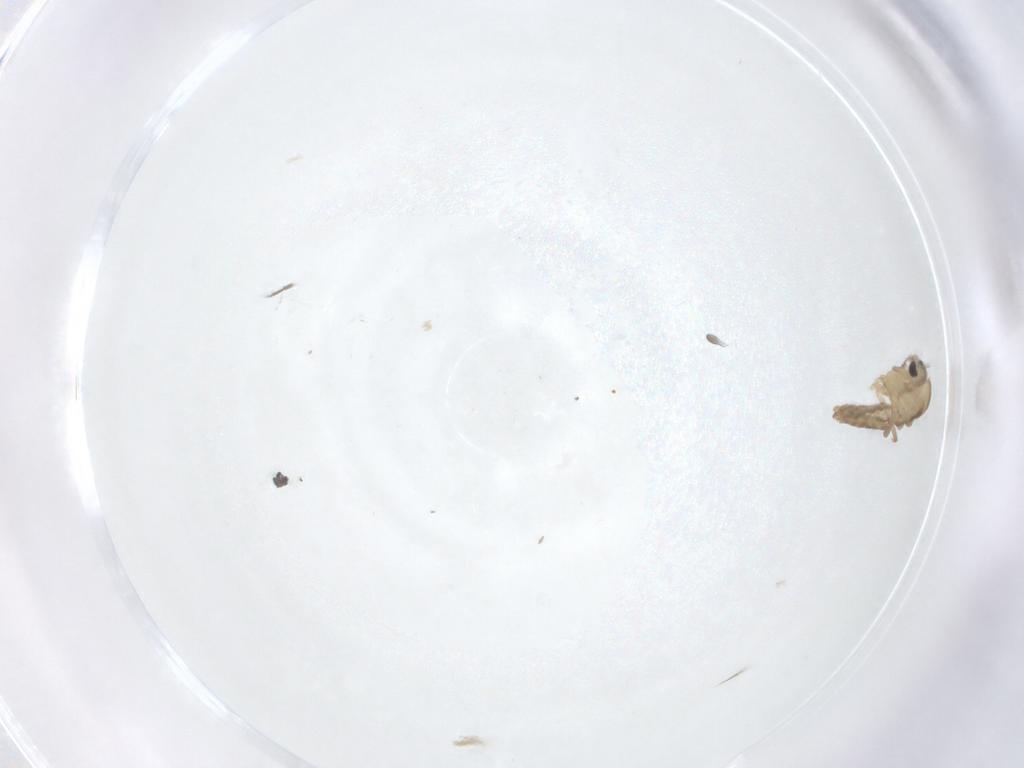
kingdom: Animalia
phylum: Arthropoda
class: Insecta
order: Diptera
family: Cecidomyiidae
